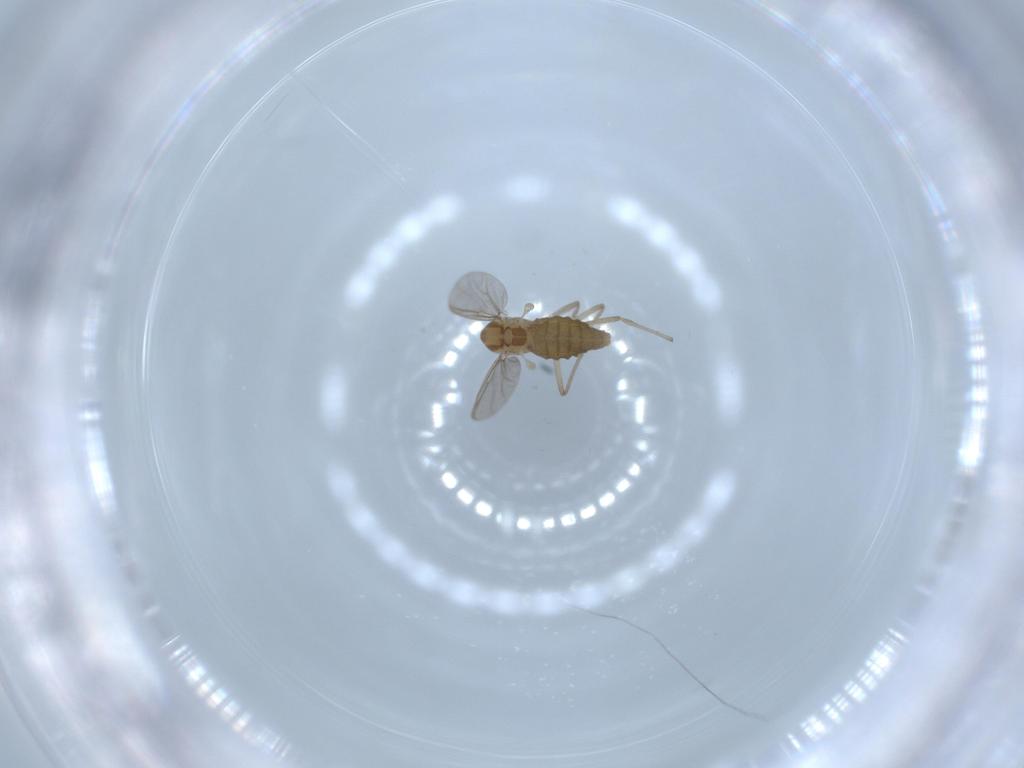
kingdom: Animalia
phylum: Arthropoda
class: Insecta
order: Diptera
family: Chironomidae
